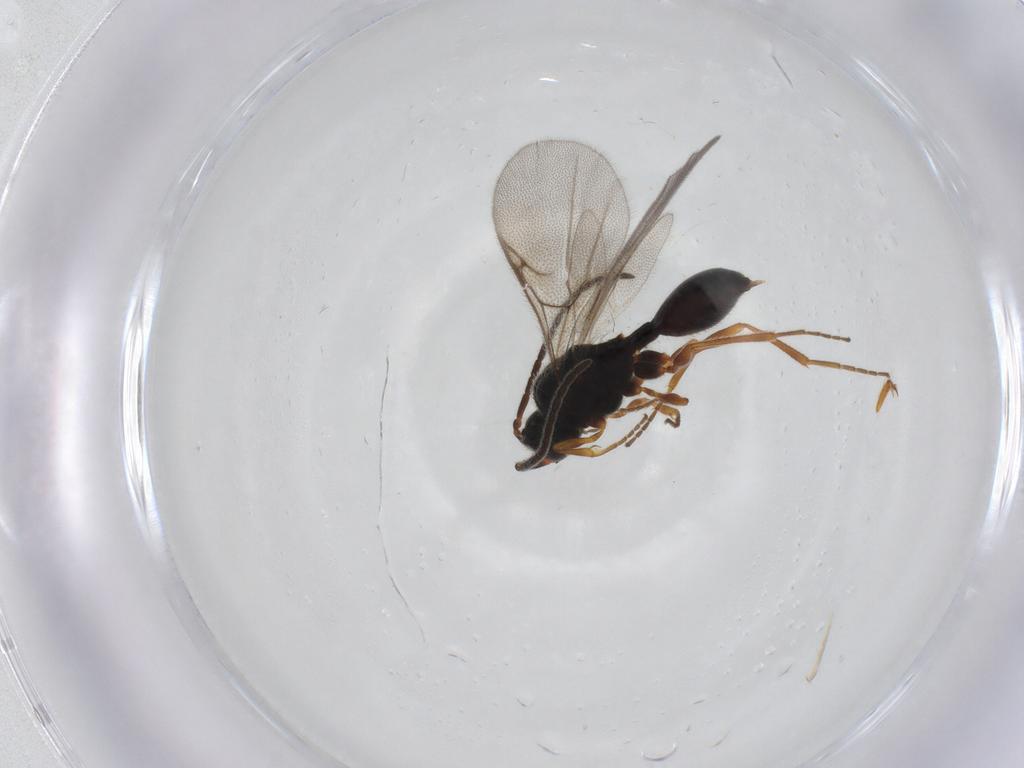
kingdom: Animalia
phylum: Arthropoda
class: Insecta
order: Hymenoptera
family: Formicidae
